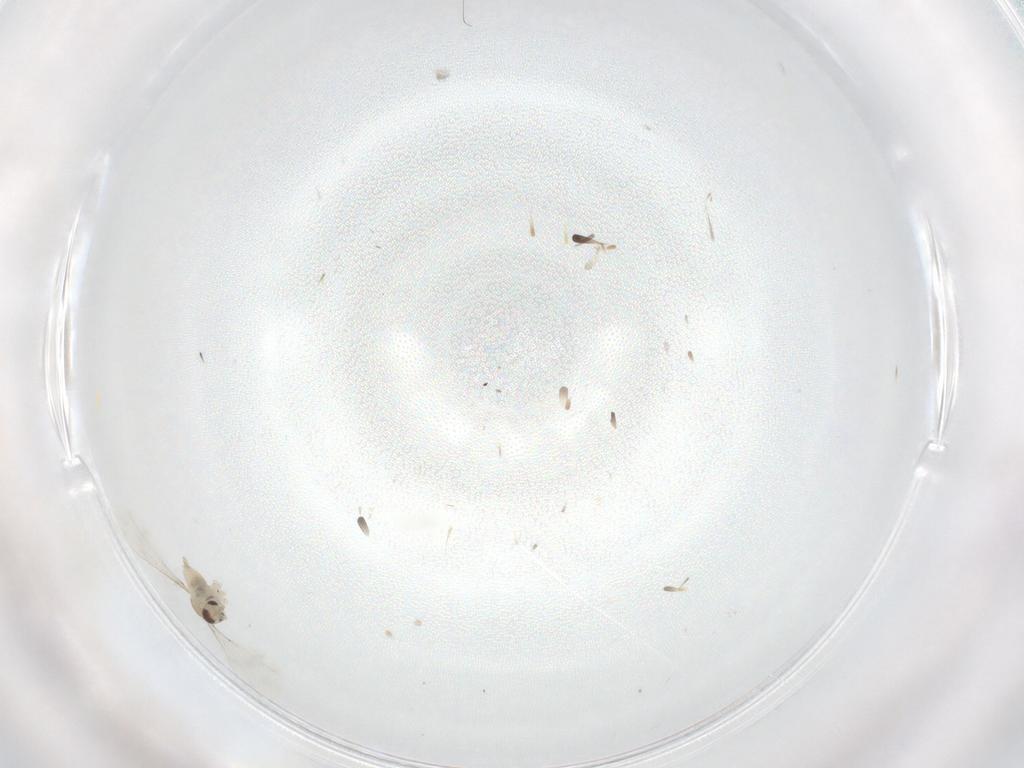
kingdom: Animalia
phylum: Arthropoda
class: Insecta
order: Diptera
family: Cecidomyiidae
